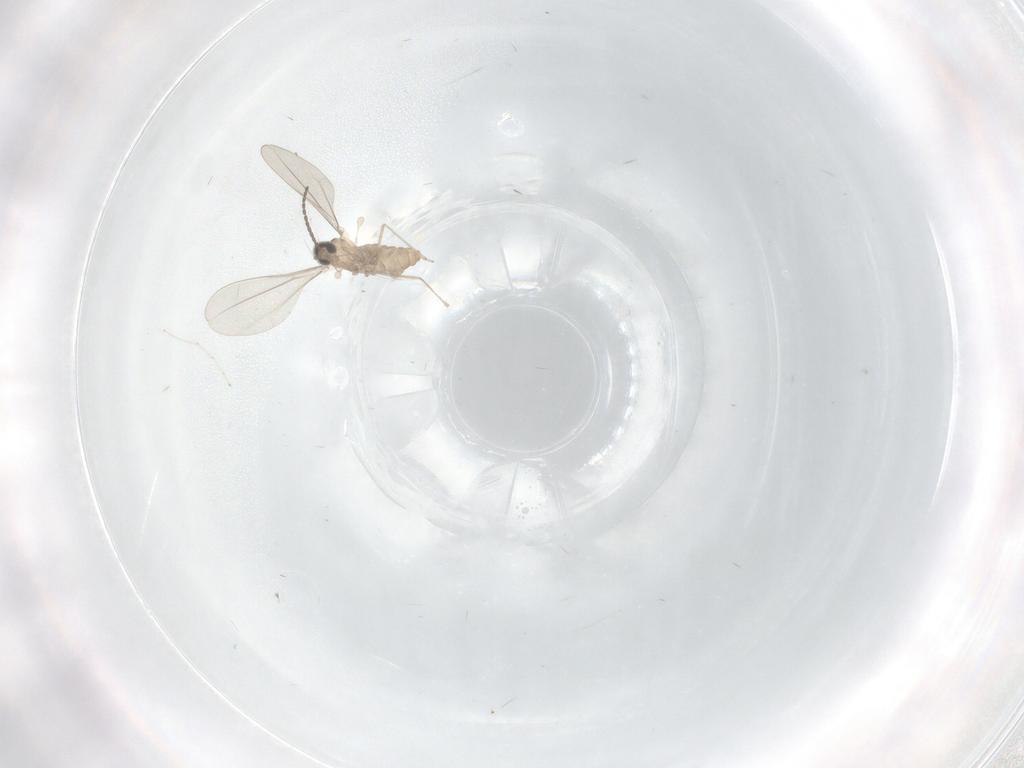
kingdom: Animalia
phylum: Arthropoda
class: Insecta
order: Diptera
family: Cecidomyiidae
